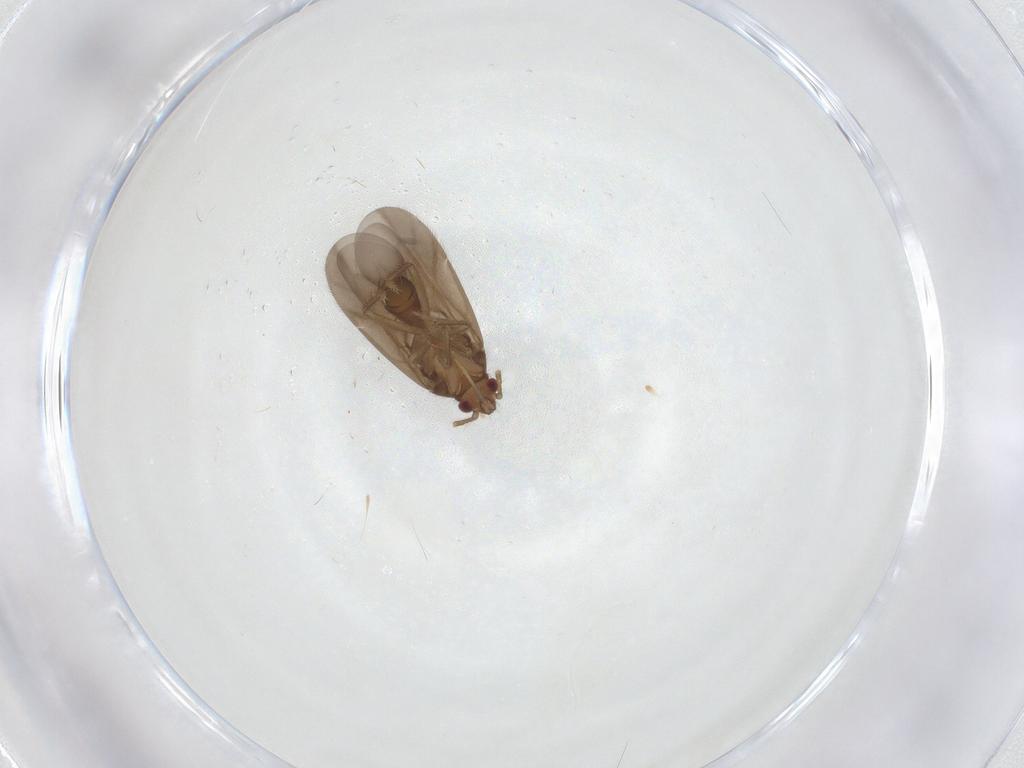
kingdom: Animalia
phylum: Arthropoda
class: Insecta
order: Hemiptera
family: Ceratocombidae
